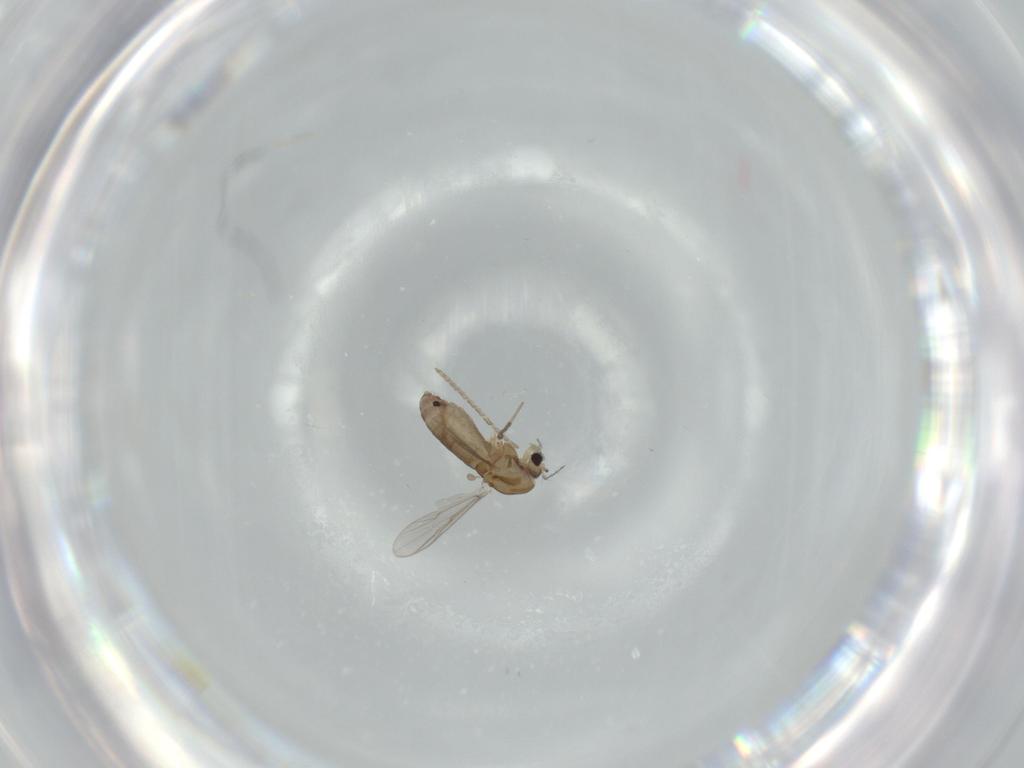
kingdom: Animalia
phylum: Arthropoda
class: Insecta
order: Diptera
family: Chironomidae
